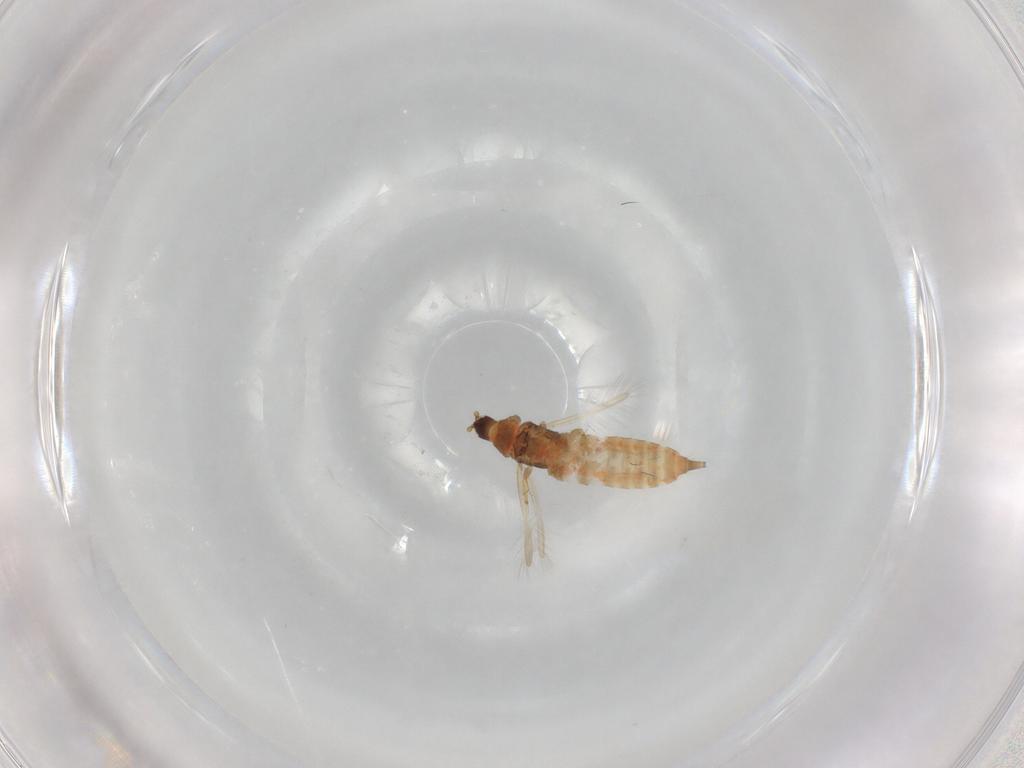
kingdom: Animalia
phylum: Arthropoda
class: Insecta
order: Thysanoptera
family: Phlaeothripidae
